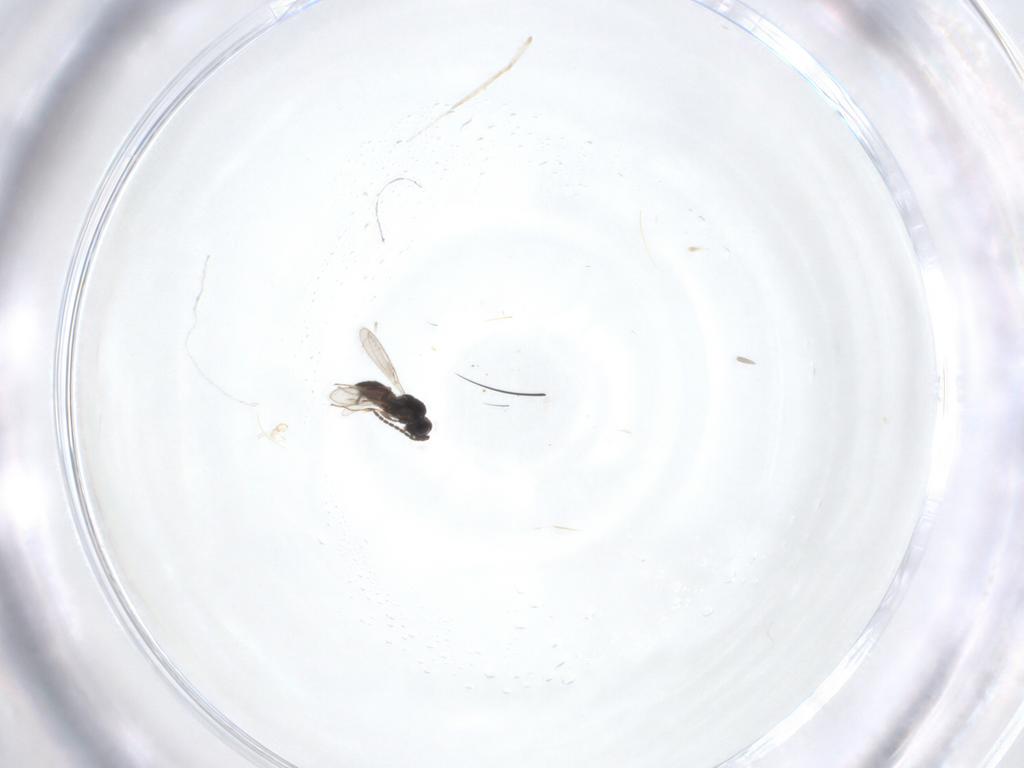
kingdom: Animalia
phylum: Arthropoda
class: Insecta
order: Hymenoptera
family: Scelionidae
